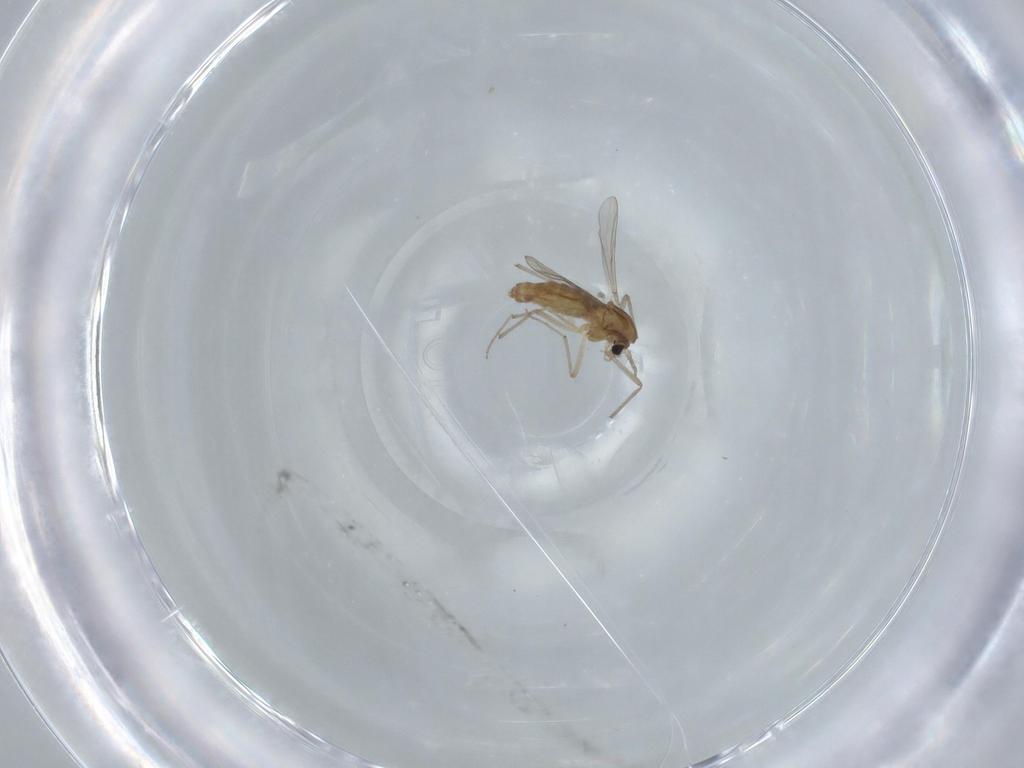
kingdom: Animalia
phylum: Arthropoda
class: Insecta
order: Diptera
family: Chironomidae
